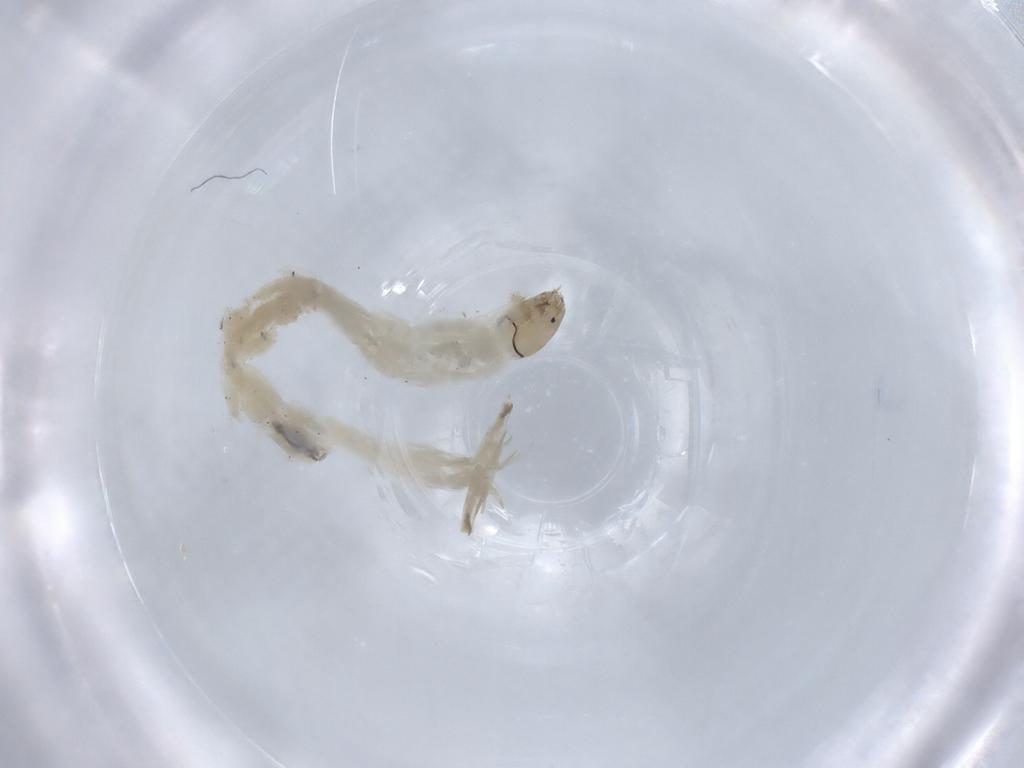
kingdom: Animalia
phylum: Arthropoda
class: Insecta
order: Diptera
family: Chironomidae
